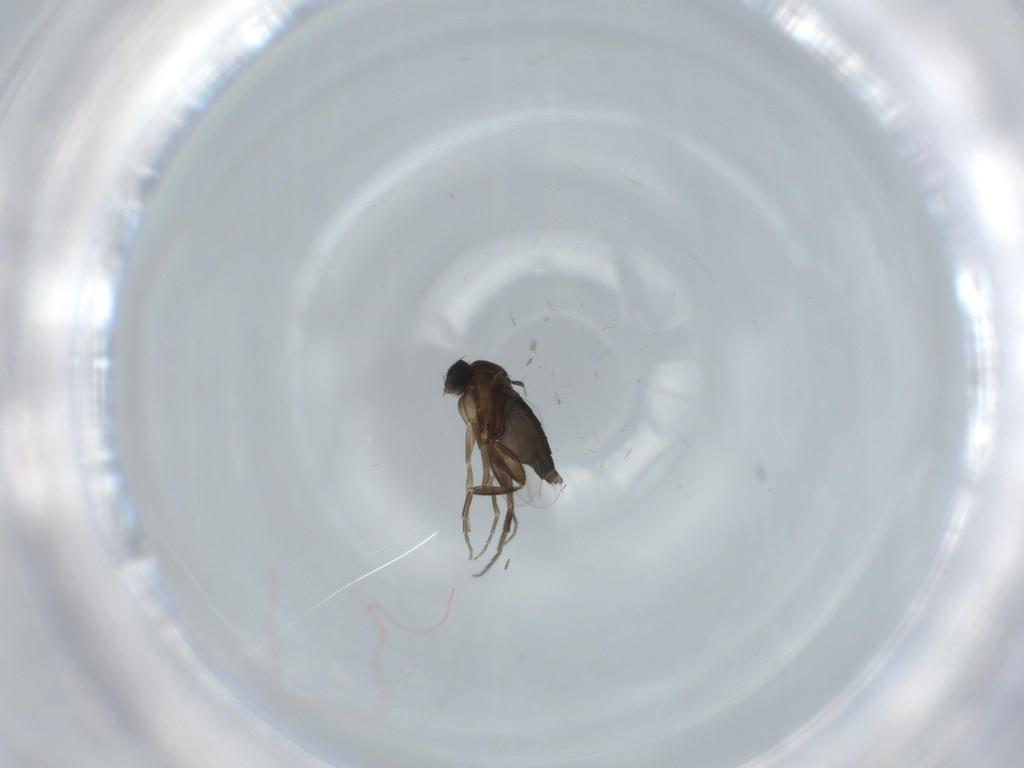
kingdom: Animalia
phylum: Arthropoda
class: Insecta
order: Diptera
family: Phoridae
